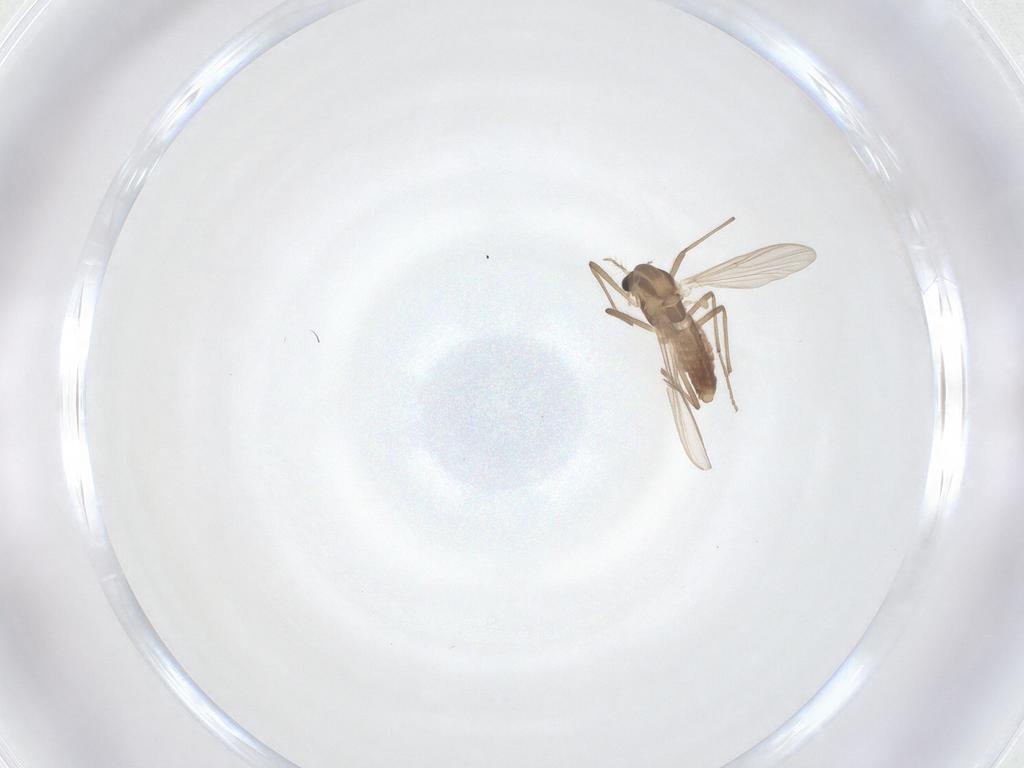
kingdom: Animalia
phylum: Arthropoda
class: Insecta
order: Diptera
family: Chironomidae
